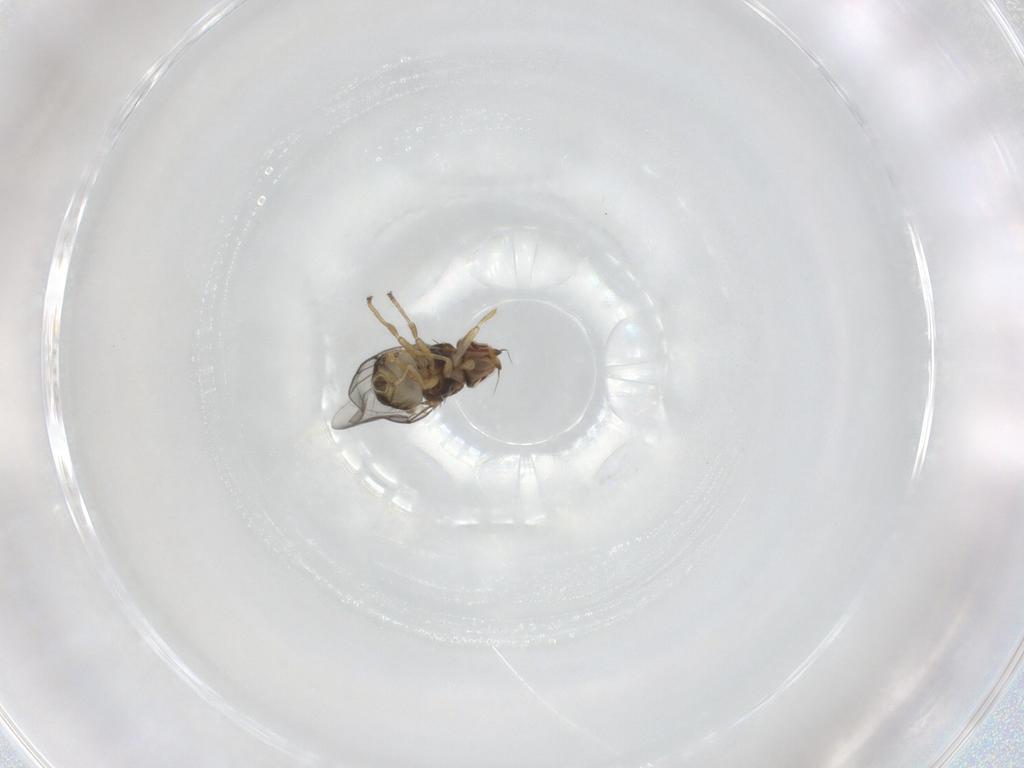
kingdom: Animalia
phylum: Arthropoda
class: Insecta
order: Diptera
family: Chloropidae
